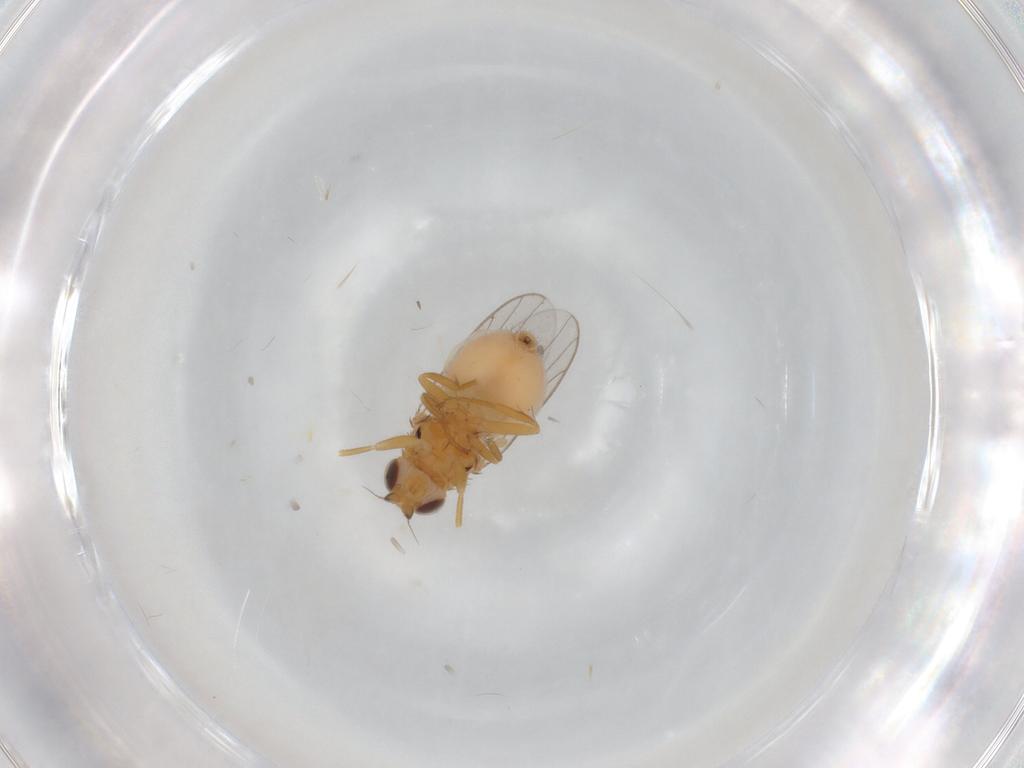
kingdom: Animalia
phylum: Arthropoda
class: Insecta
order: Diptera
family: Chloropidae
